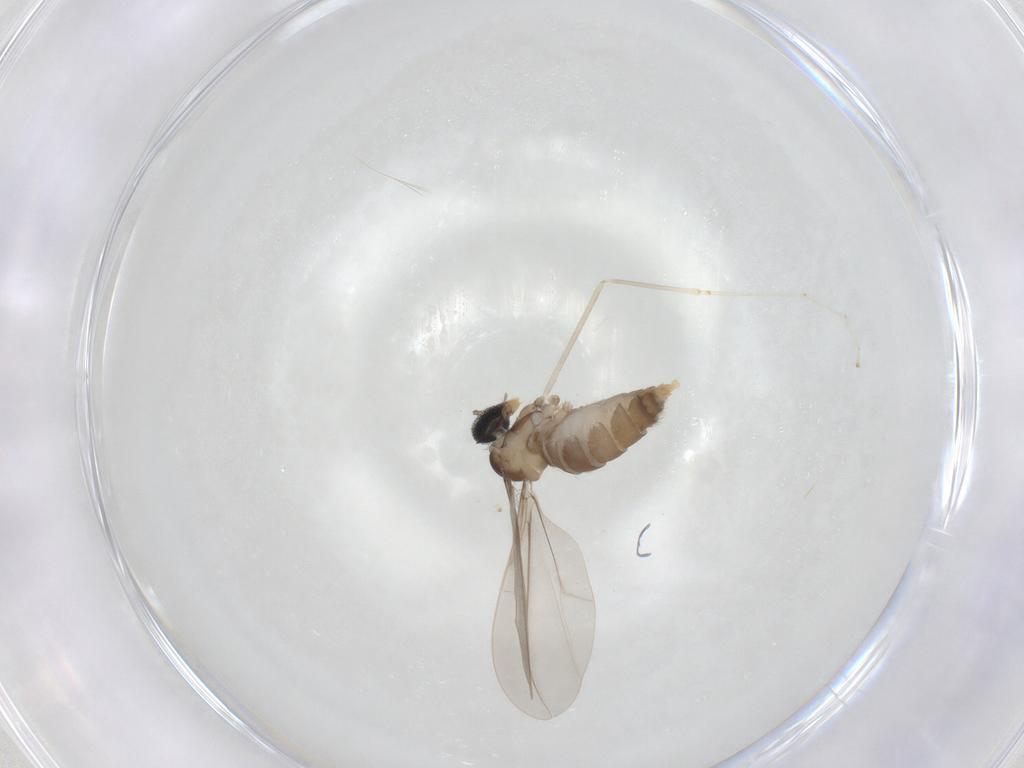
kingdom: Animalia
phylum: Arthropoda
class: Insecta
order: Diptera
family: Cecidomyiidae
